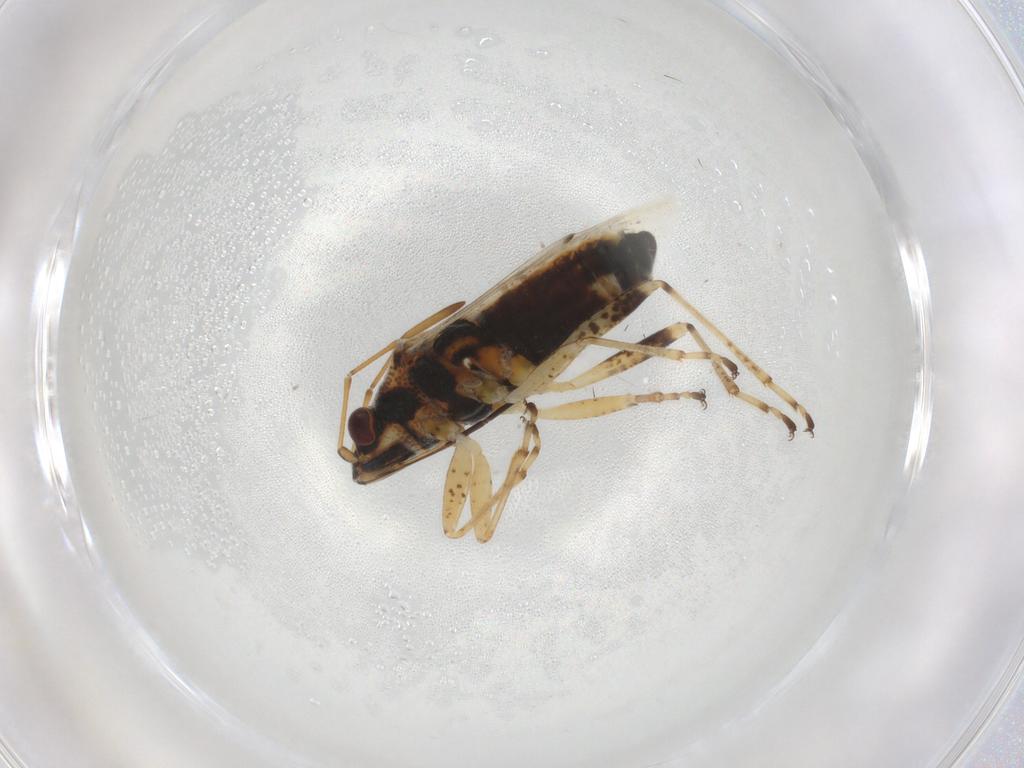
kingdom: Animalia
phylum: Arthropoda
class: Insecta
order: Hemiptera
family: Lygaeidae
